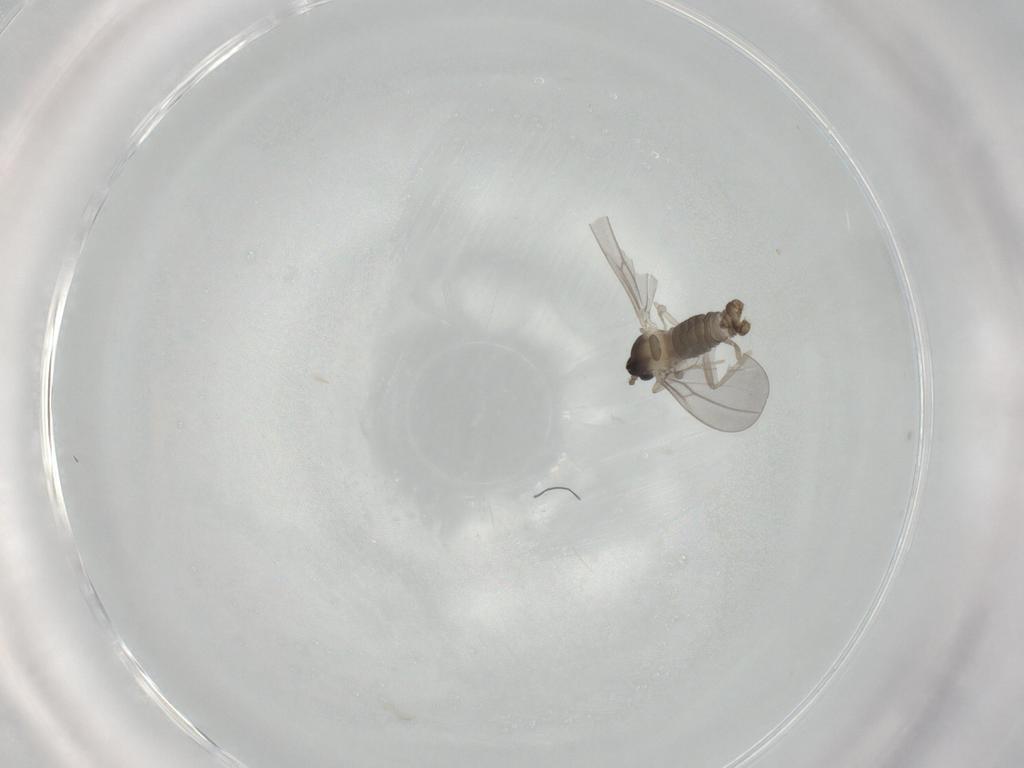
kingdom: Animalia
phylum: Arthropoda
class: Insecta
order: Diptera
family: Cecidomyiidae
